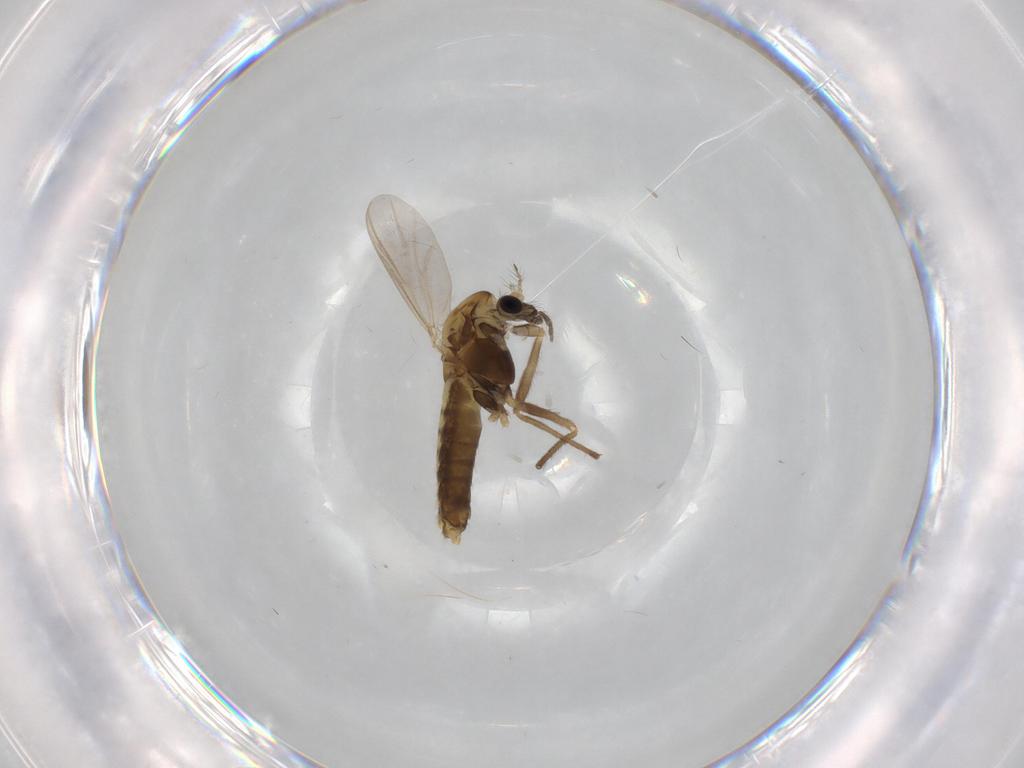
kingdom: Animalia
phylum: Arthropoda
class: Insecta
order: Diptera
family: Chironomidae
